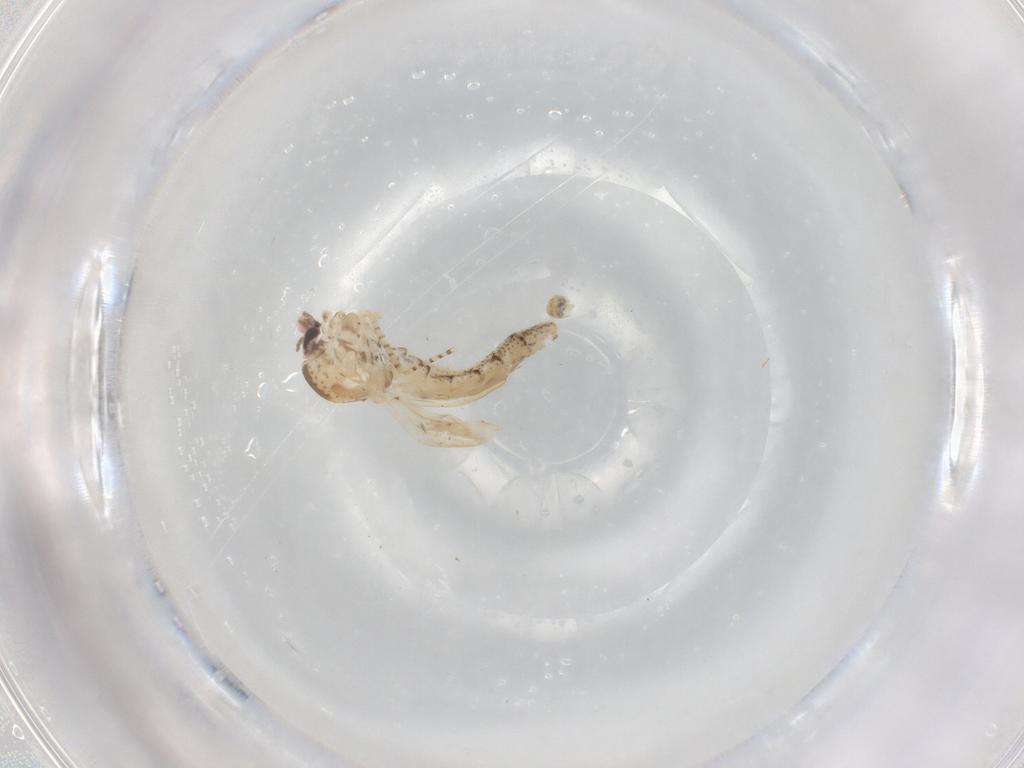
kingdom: Animalia
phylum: Arthropoda
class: Insecta
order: Diptera
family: Chaoboridae
